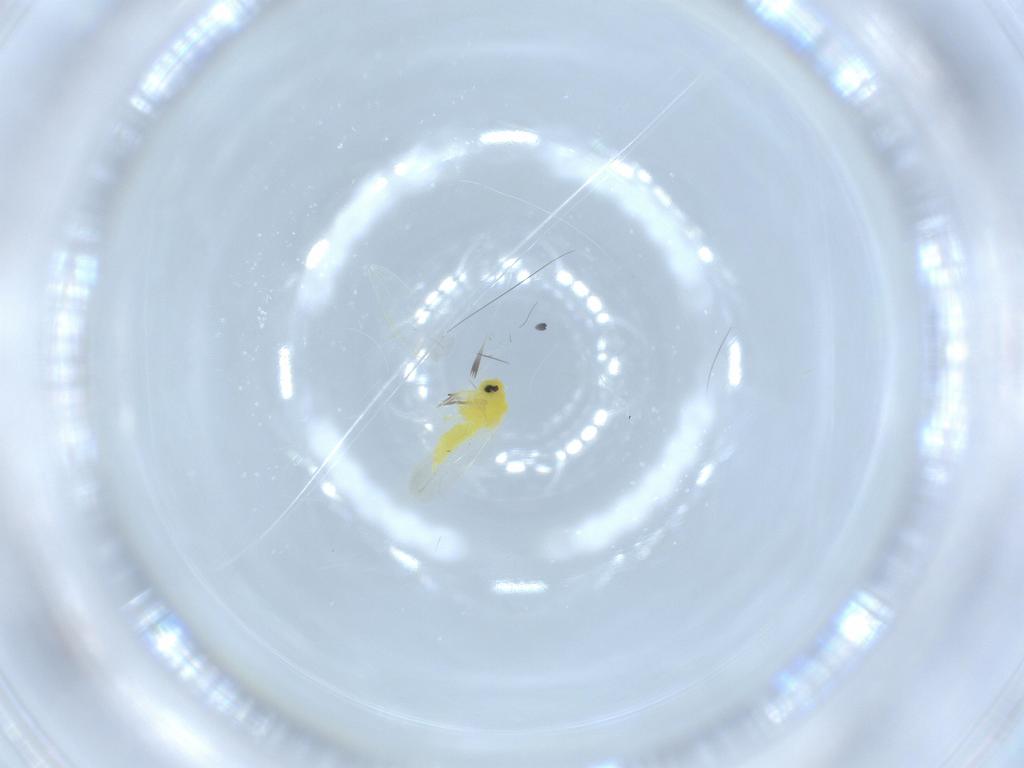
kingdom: Animalia
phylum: Arthropoda
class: Insecta
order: Hemiptera
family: Aleyrodidae
